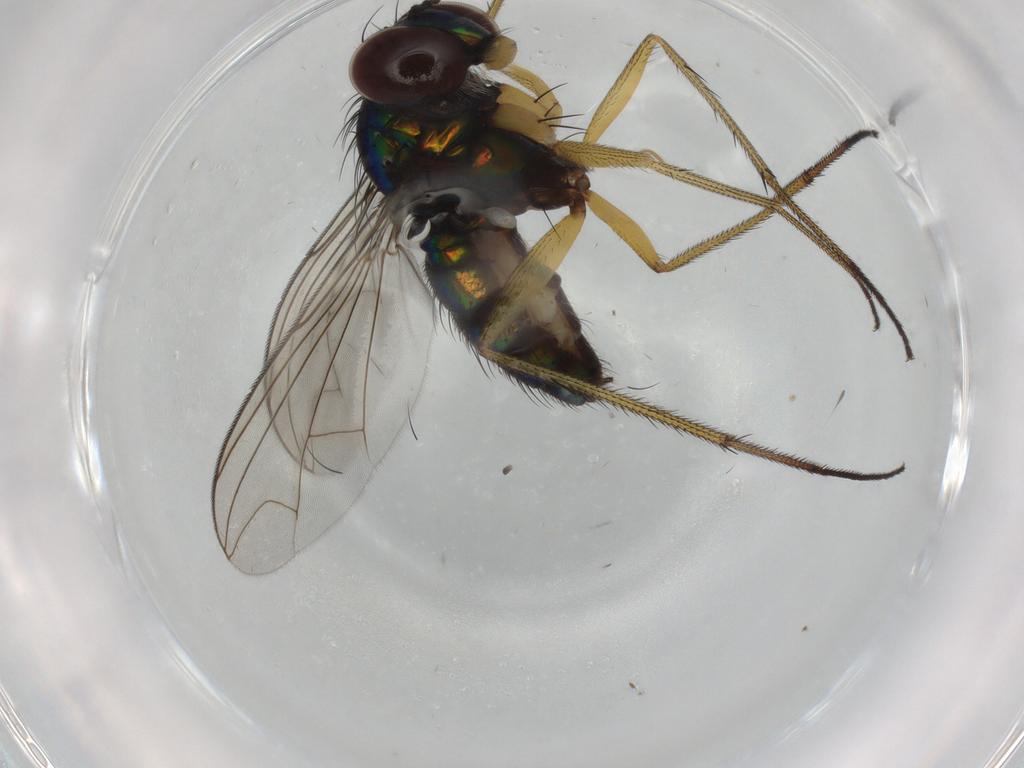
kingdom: Animalia
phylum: Arthropoda
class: Insecta
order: Diptera
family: Dolichopodidae
